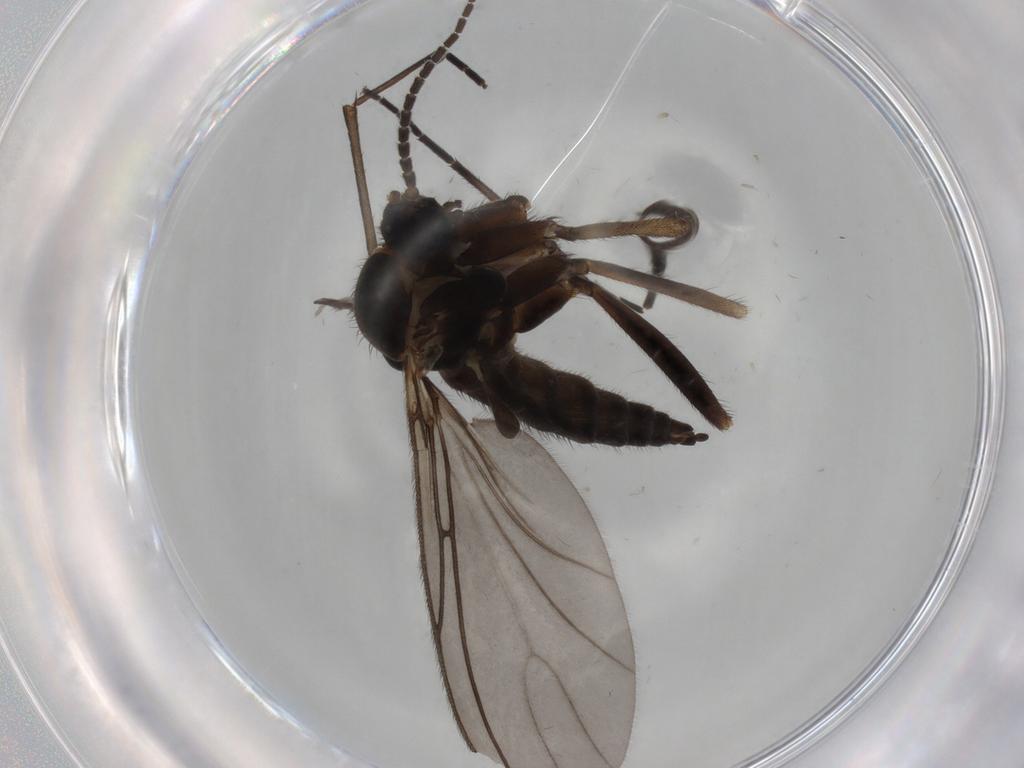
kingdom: Animalia
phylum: Arthropoda
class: Insecta
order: Diptera
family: Sciaridae
